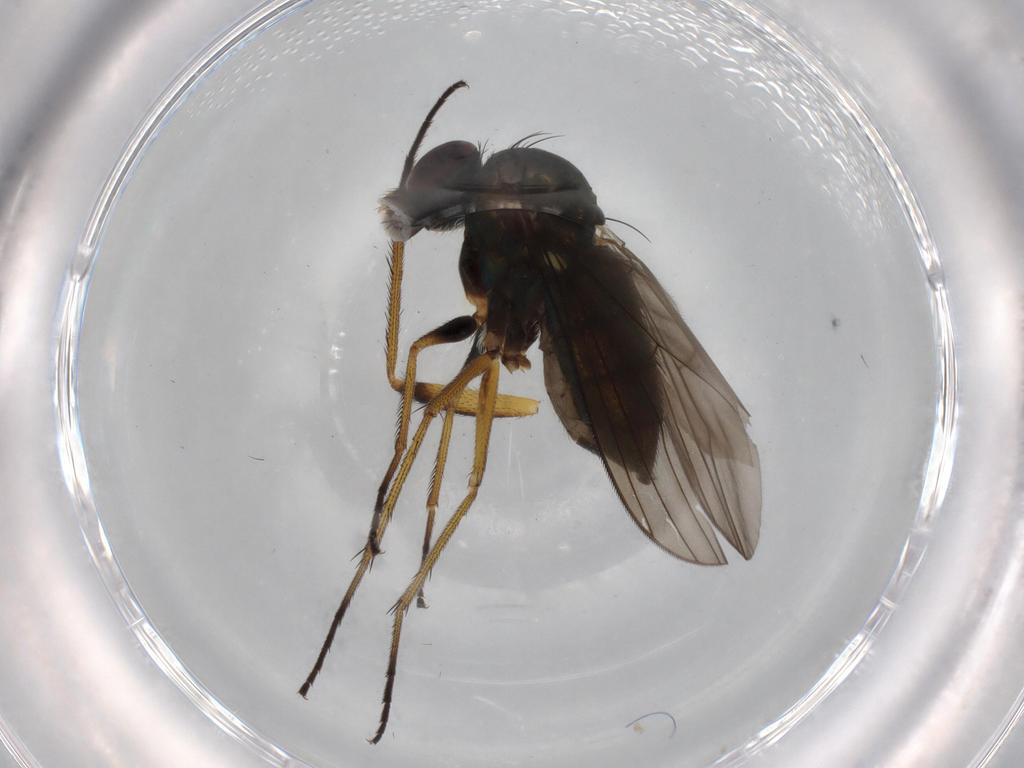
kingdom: Animalia
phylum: Arthropoda
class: Insecta
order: Diptera
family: Dolichopodidae
